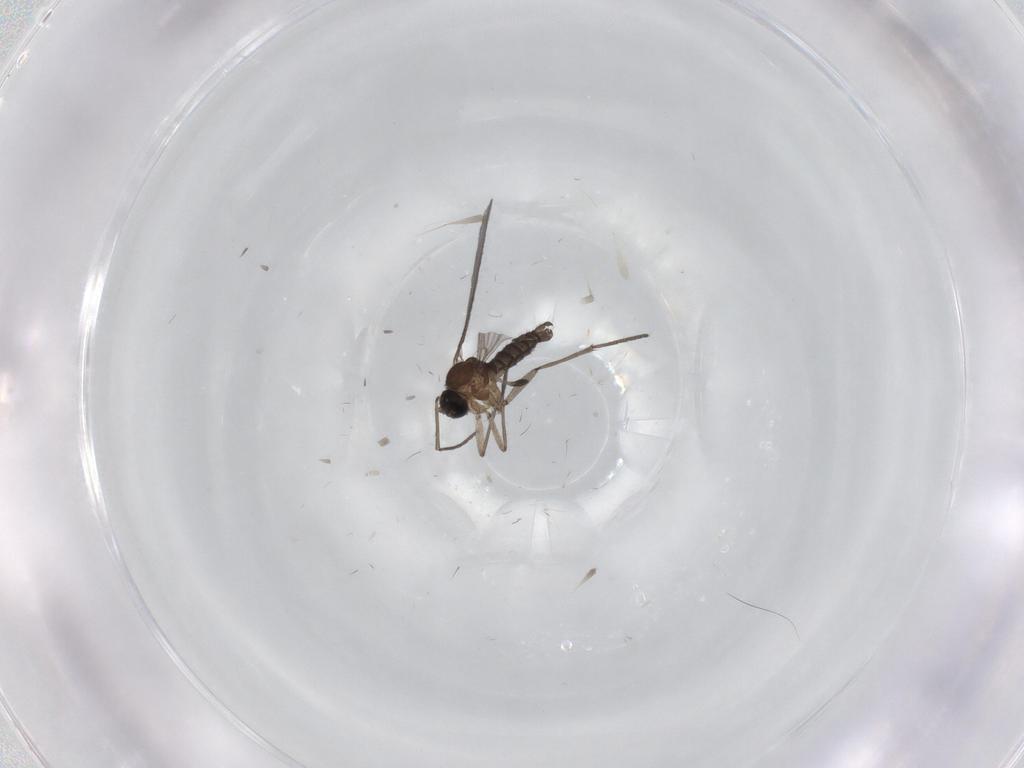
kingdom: Animalia
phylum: Arthropoda
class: Insecta
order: Diptera
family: Sciaridae
